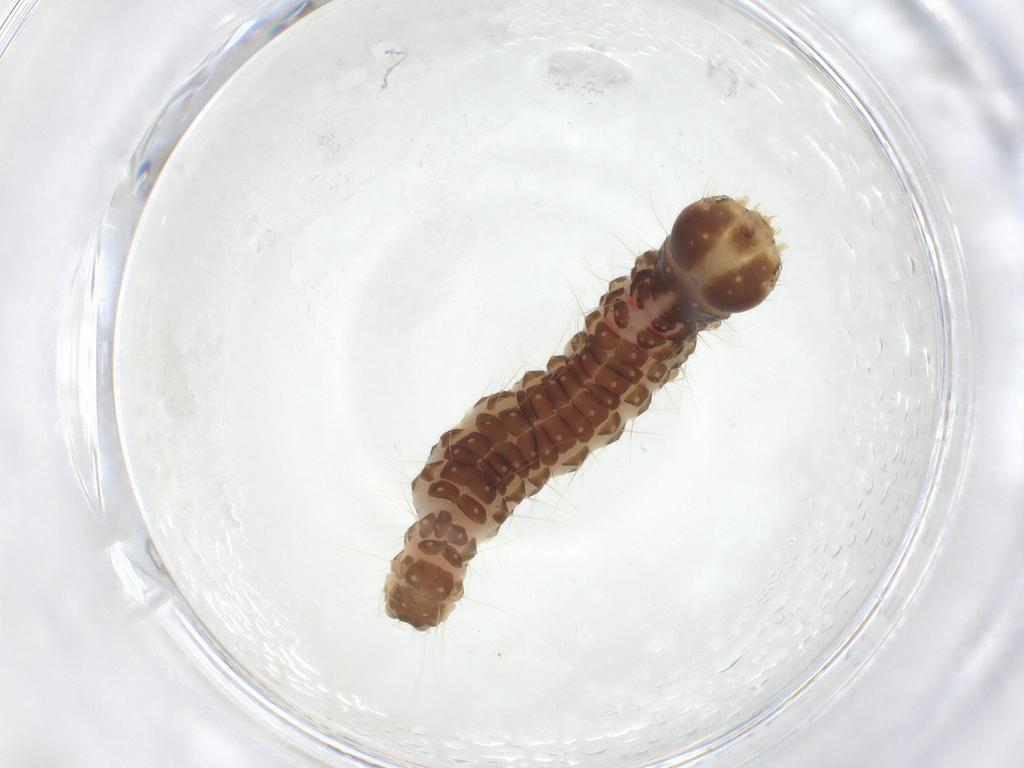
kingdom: Animalia
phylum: Arthropoda
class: Insecta
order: Lepidoptera
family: Crambidae
